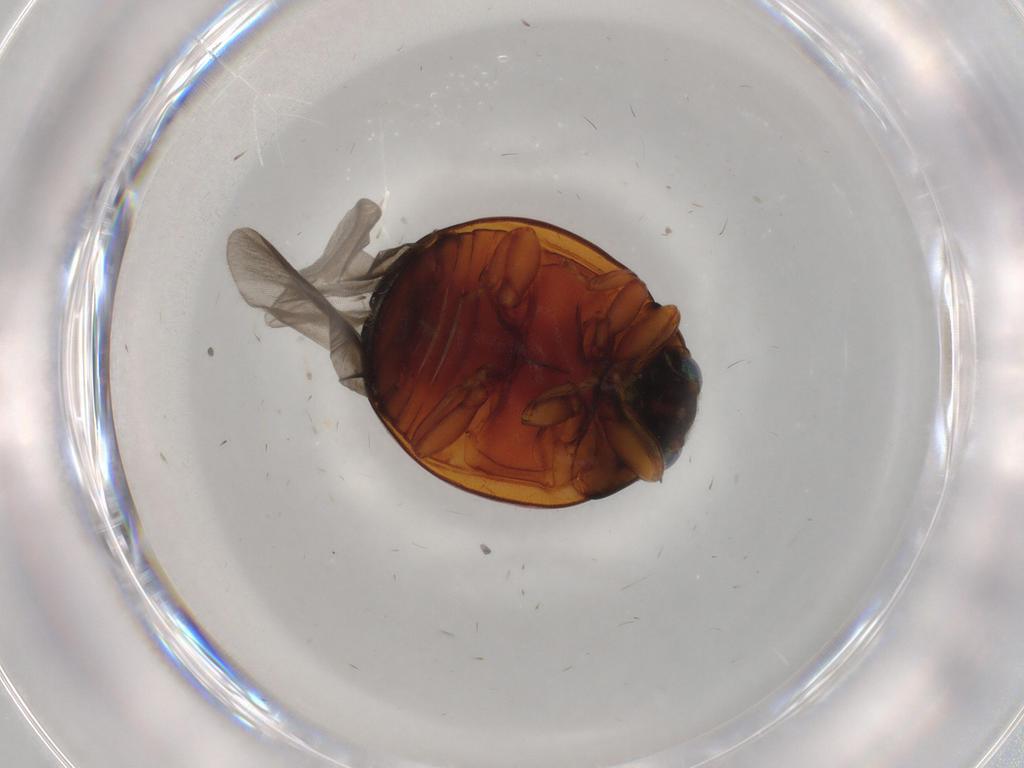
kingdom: Animalia
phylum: Arthropoda
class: Insecta
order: Coleoptera
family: Coccinellidae
